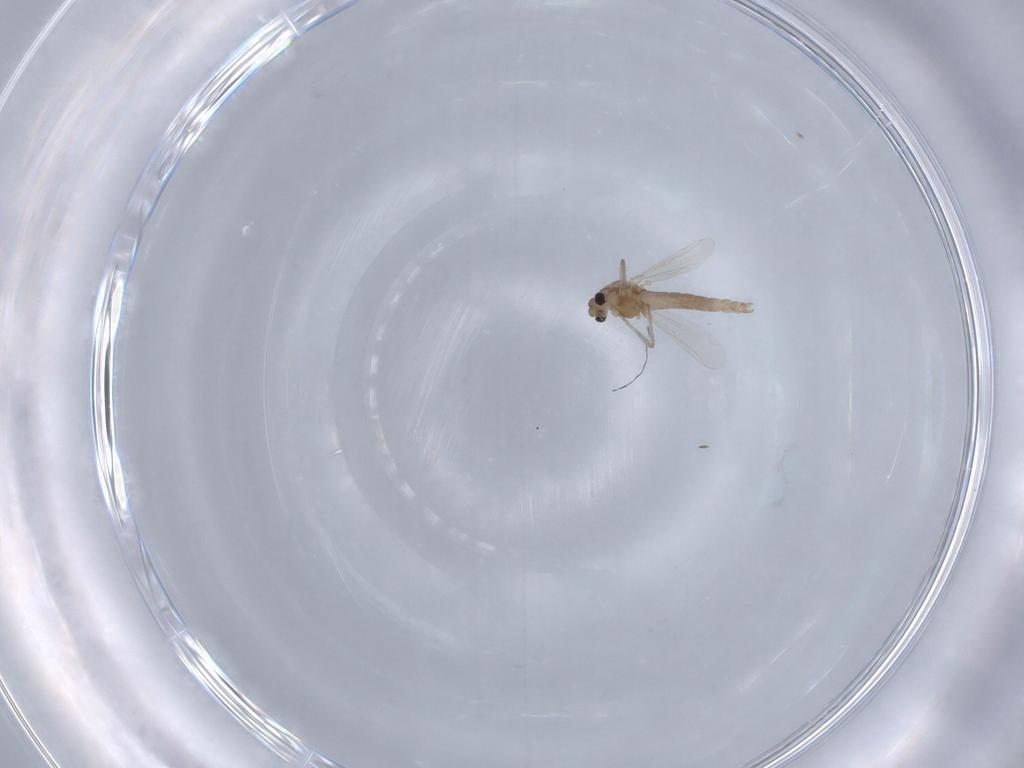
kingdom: Animalia
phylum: Arthropoda
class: Insecta
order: Diptera
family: Chironomidae
